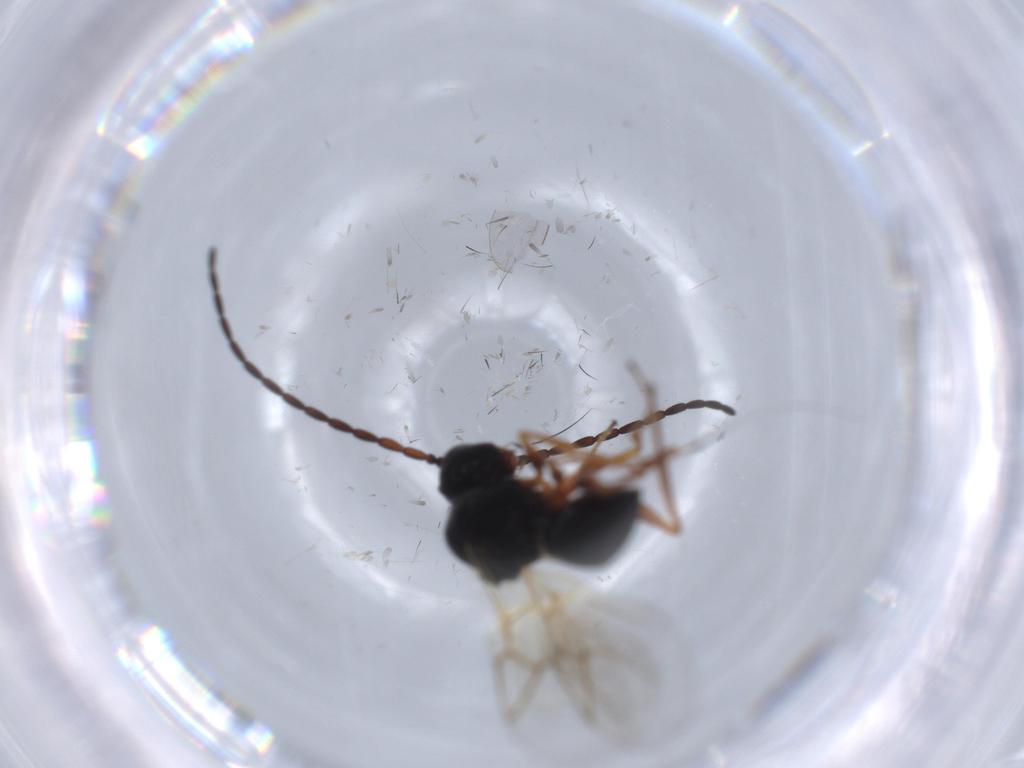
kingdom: Animalia
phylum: Arthropoda
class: Insecta
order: Hymenoptera
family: Figitidae
